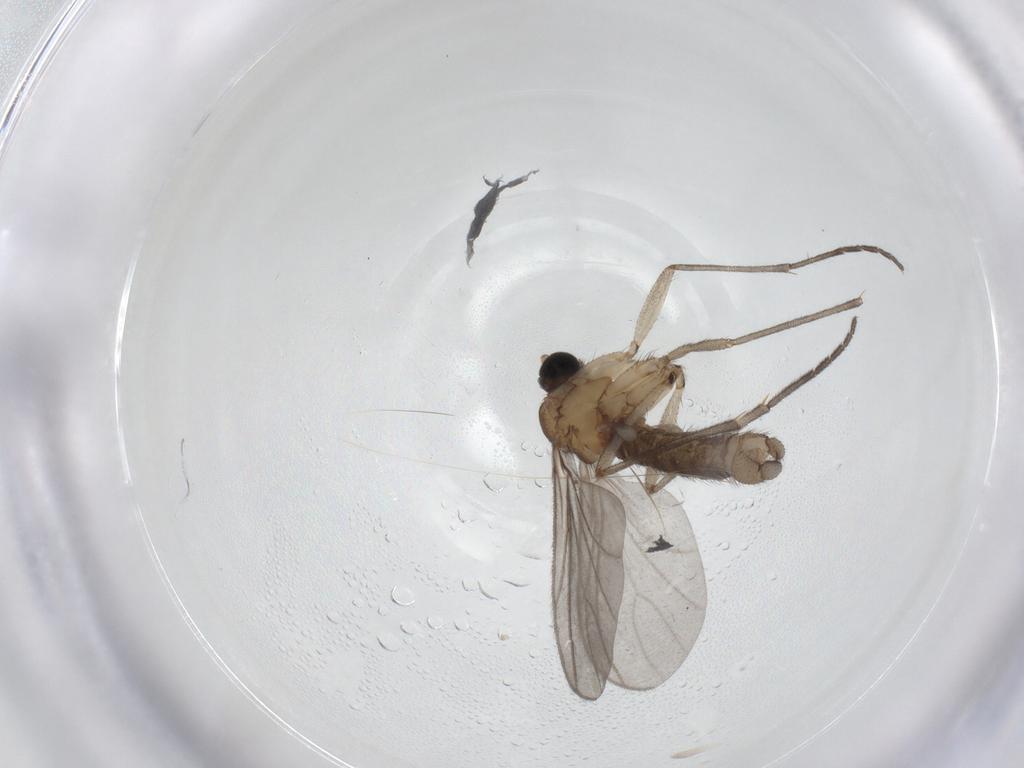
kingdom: Animalia
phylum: Arthropoda
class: Insecta
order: Diptera
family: Sciaridae
